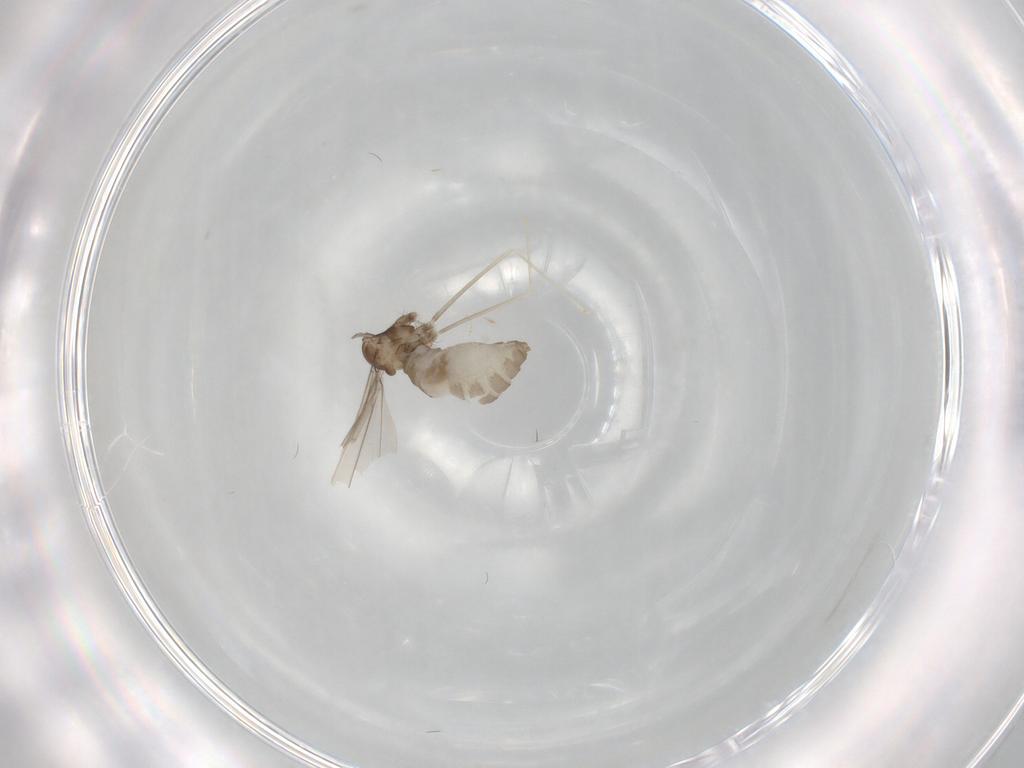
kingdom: Animalia
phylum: Arthropoda
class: Insecta
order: Diptera
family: Cecidomyiidae
